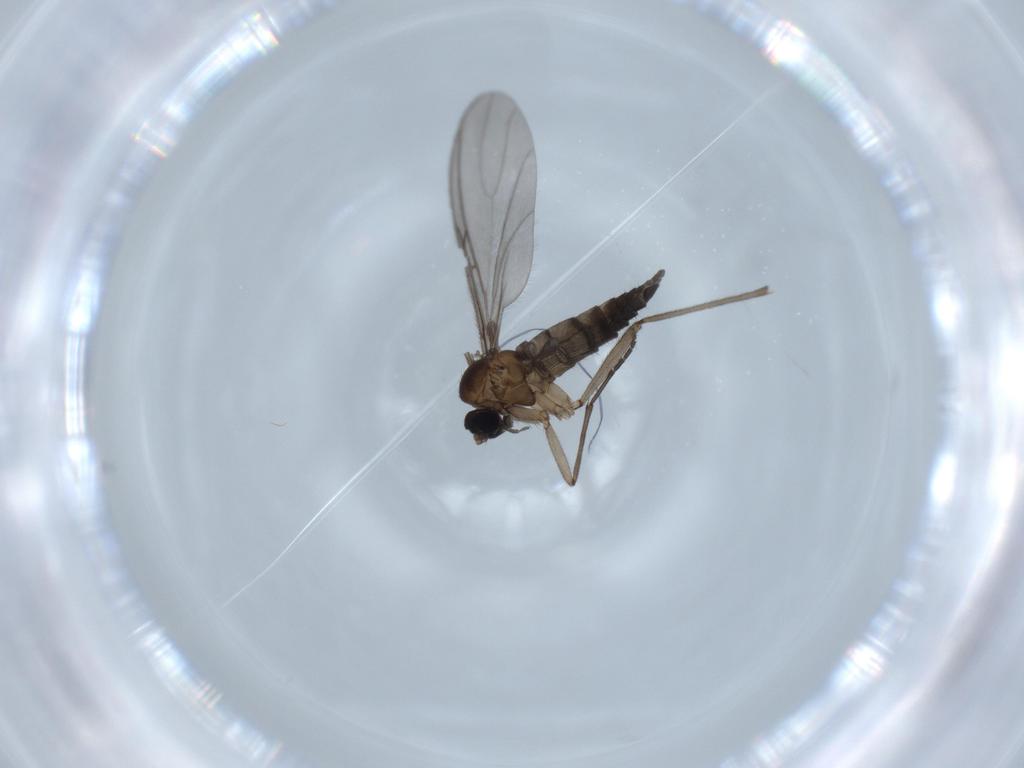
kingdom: Animalia
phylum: Arthropoda
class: Insecta
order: Diptera
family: Sciaridae
